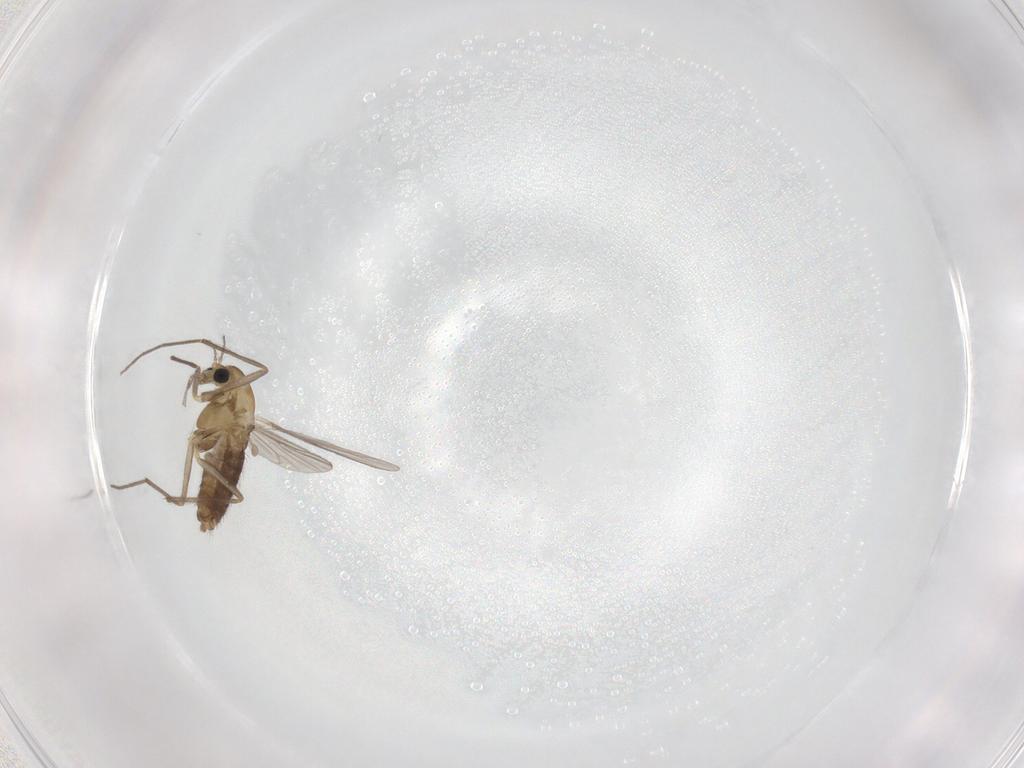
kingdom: Animalia
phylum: Arthropoda
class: Insecta
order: Diptera
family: Chironomidae
